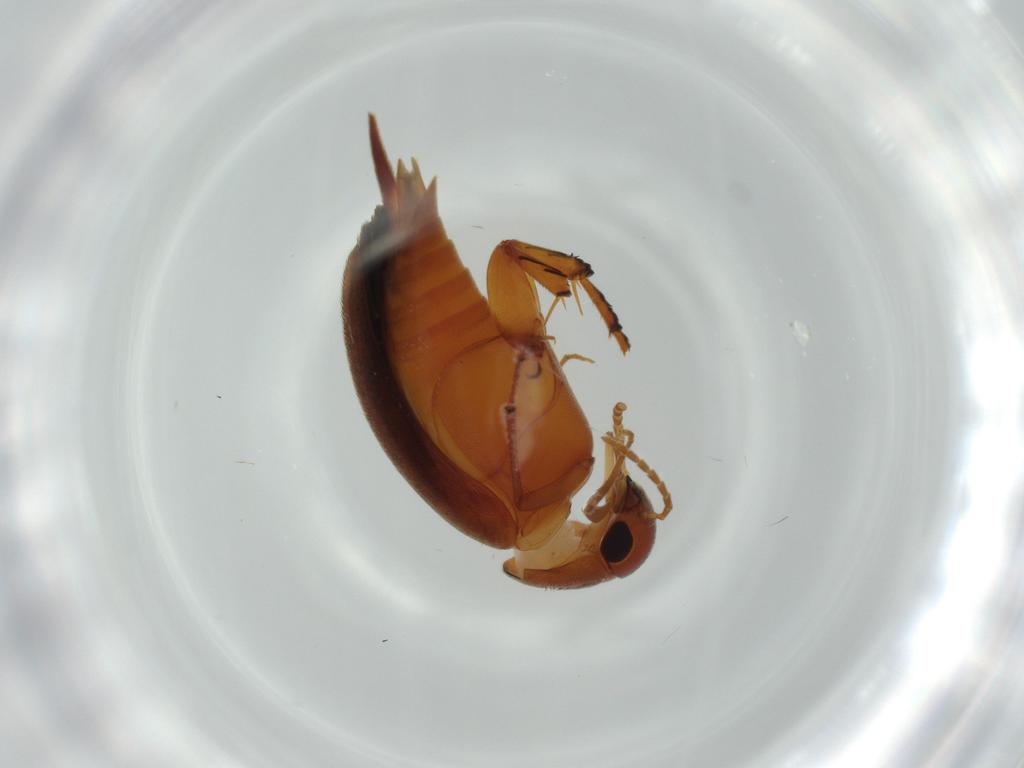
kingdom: Animalia
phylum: Arthropoda
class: Insecta
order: Coleoptera
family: Mordellidae
